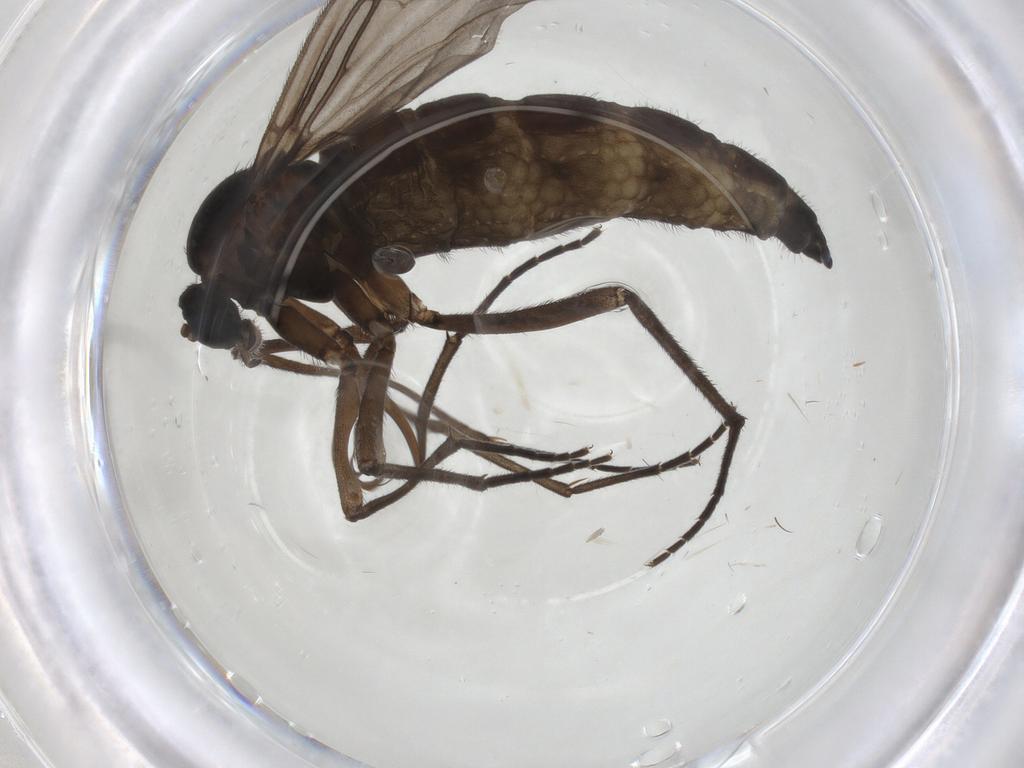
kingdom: Animalia
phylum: Arthropoda
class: Insecta
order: Diptera
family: Sciaridae
